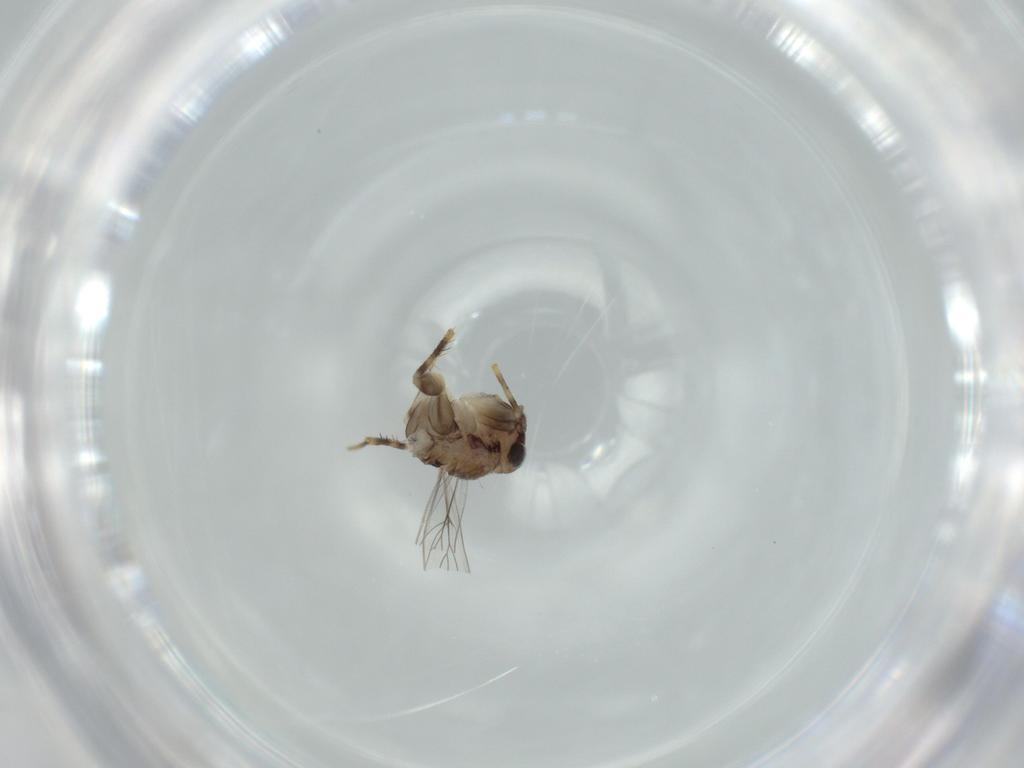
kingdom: Animalia
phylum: Arthropoda
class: Insecta
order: Psocodea
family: Lepidopsocidae
